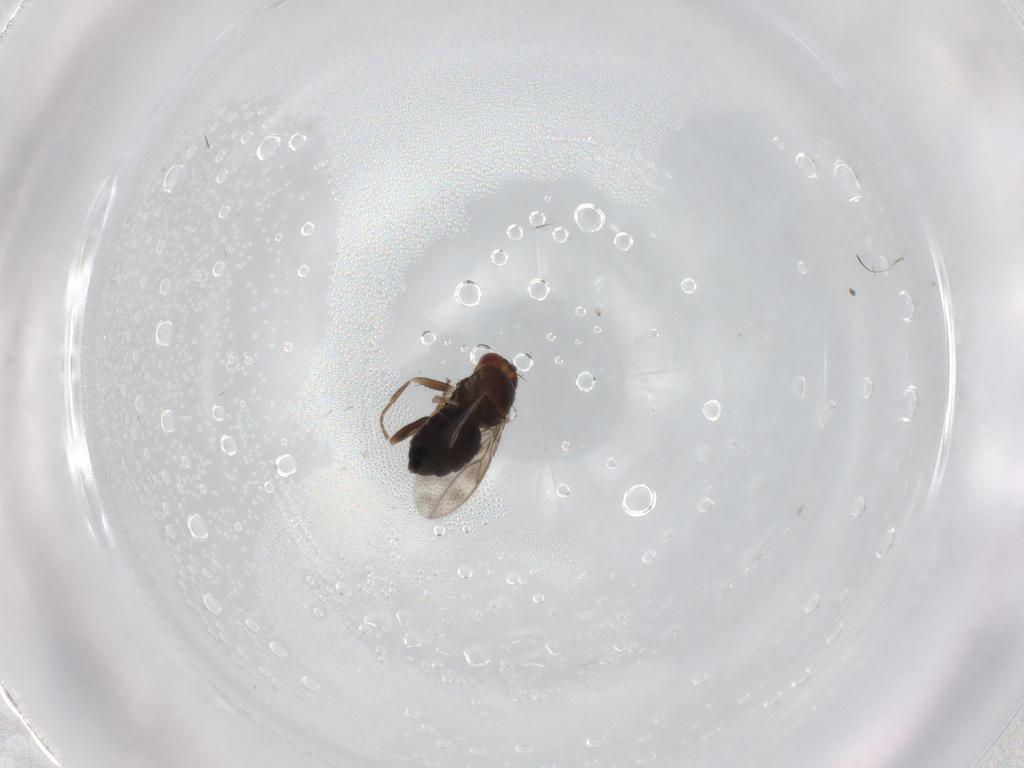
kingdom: Animalia
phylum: Arthropoda
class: Insecta
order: Diptera
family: Sphaeroceridae
